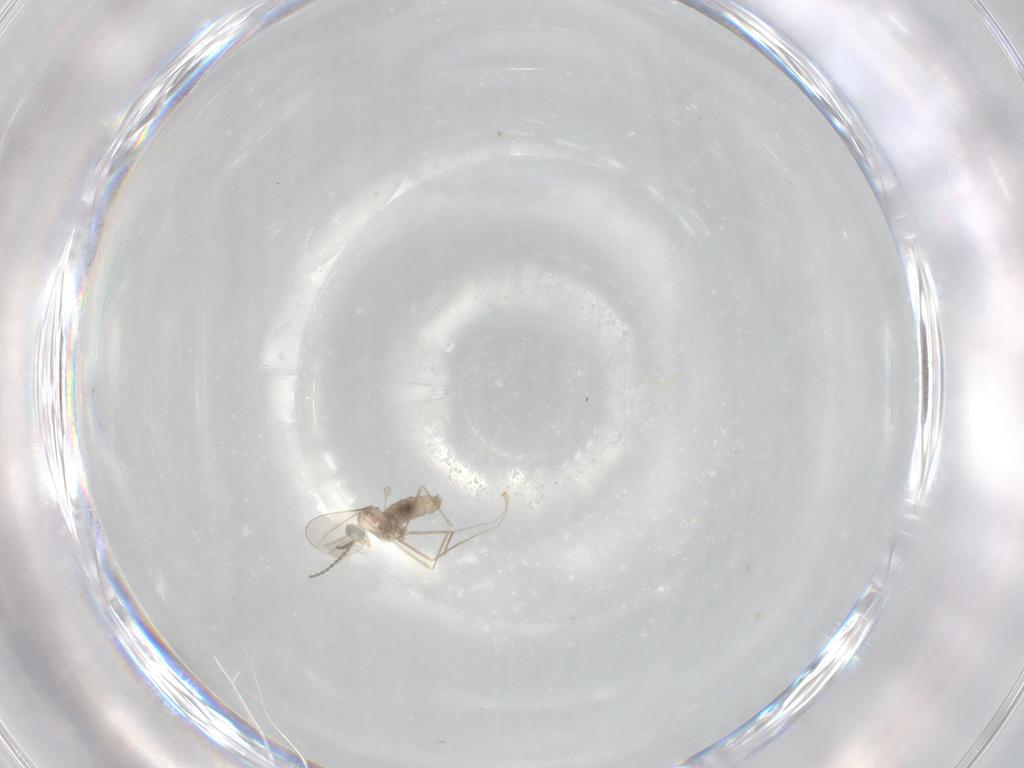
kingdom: Animalia
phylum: Arthropoda
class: Insecta
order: Diptera
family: Cecidomyiidae
